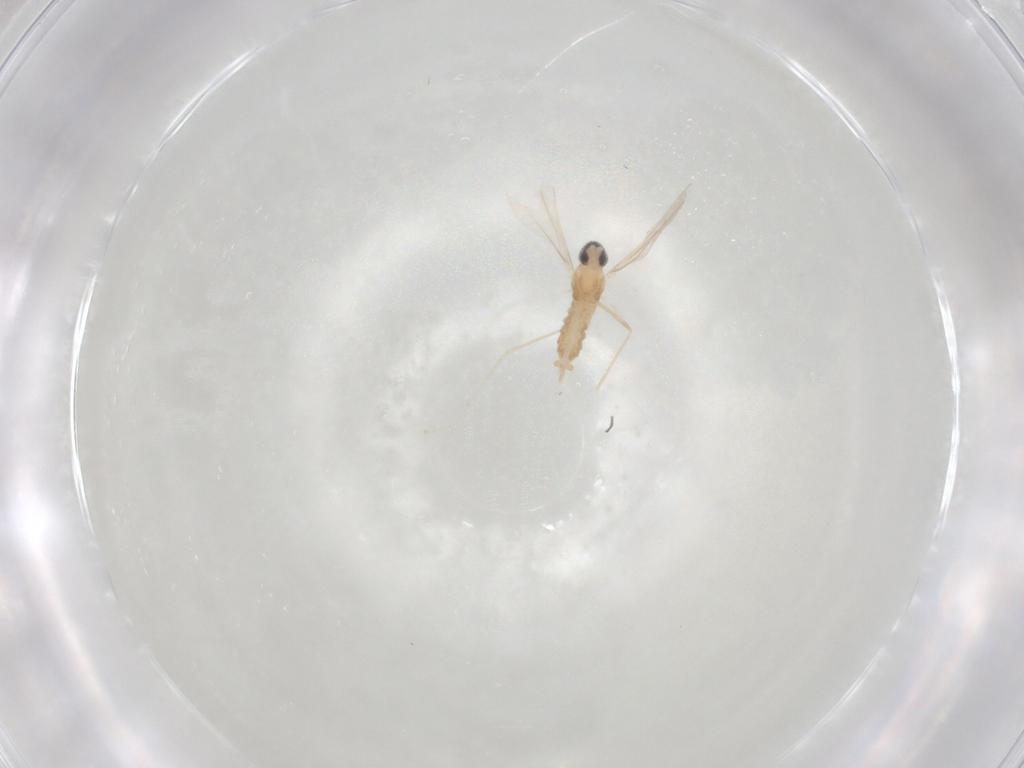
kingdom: Animalia
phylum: Arthropoda
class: Insecta
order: Diptera
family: Cecidomyiidae
